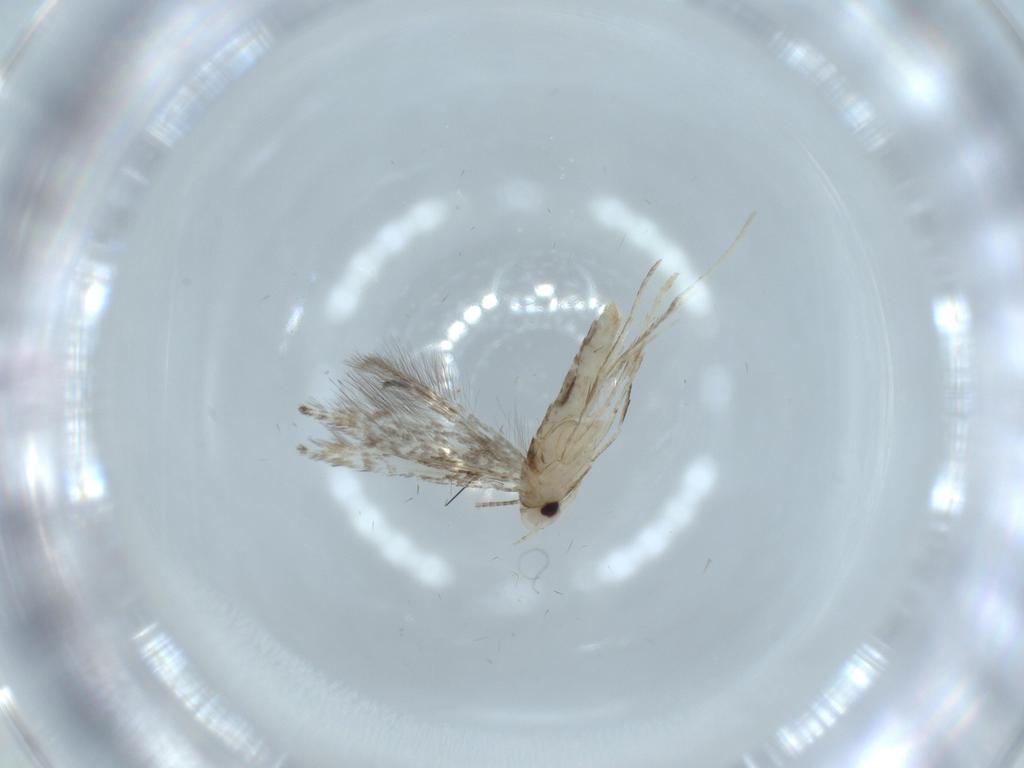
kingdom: Animalia
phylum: Arthropoda
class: Insecta
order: Lepidoptera
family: Gracillariidae
